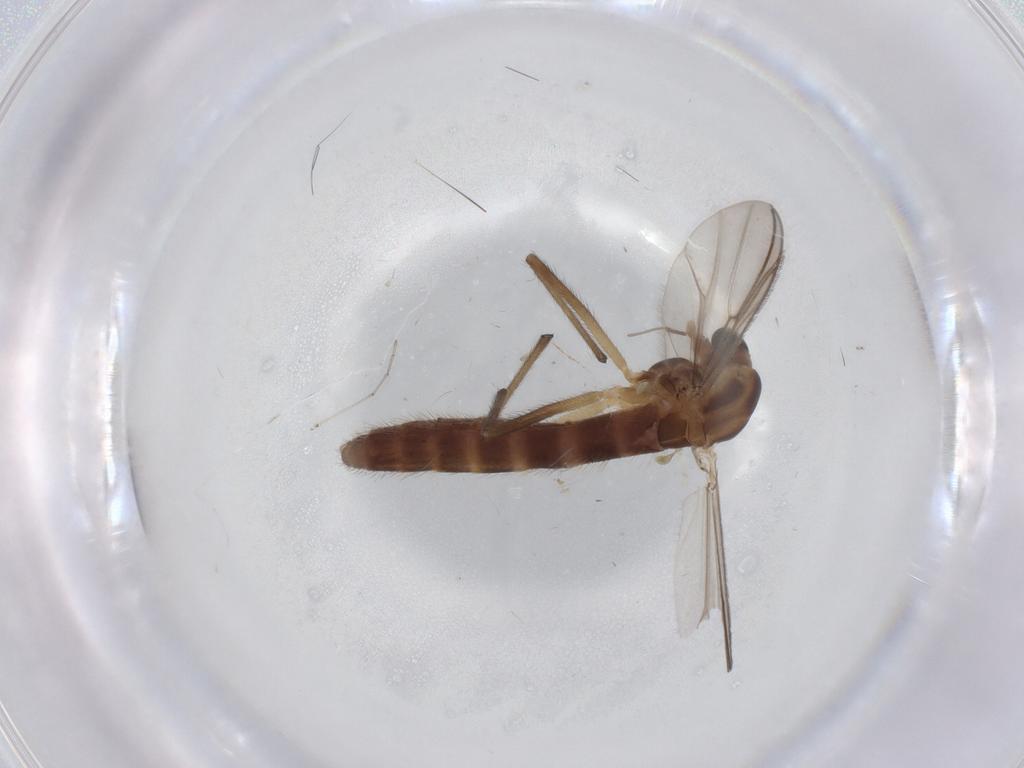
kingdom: Animalia
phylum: Arthropoda
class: Insecta
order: Diptera
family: Chironomidae
